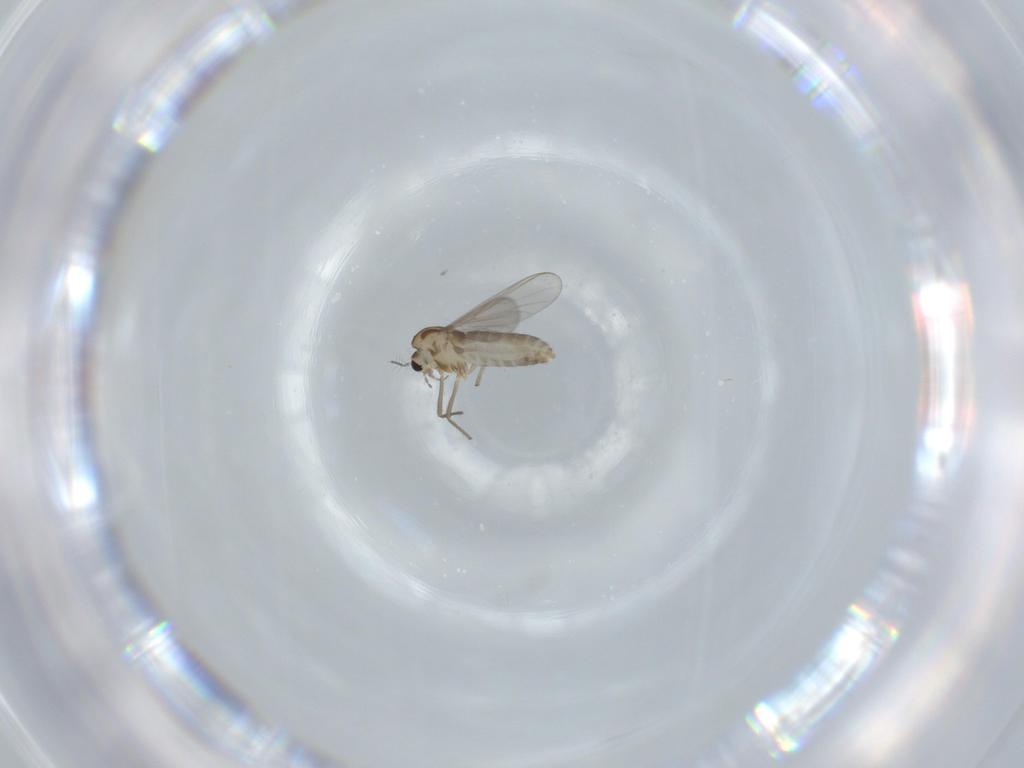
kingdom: Animalia
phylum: Arthropoda
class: Insecta
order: Diptera
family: Chironomidae
